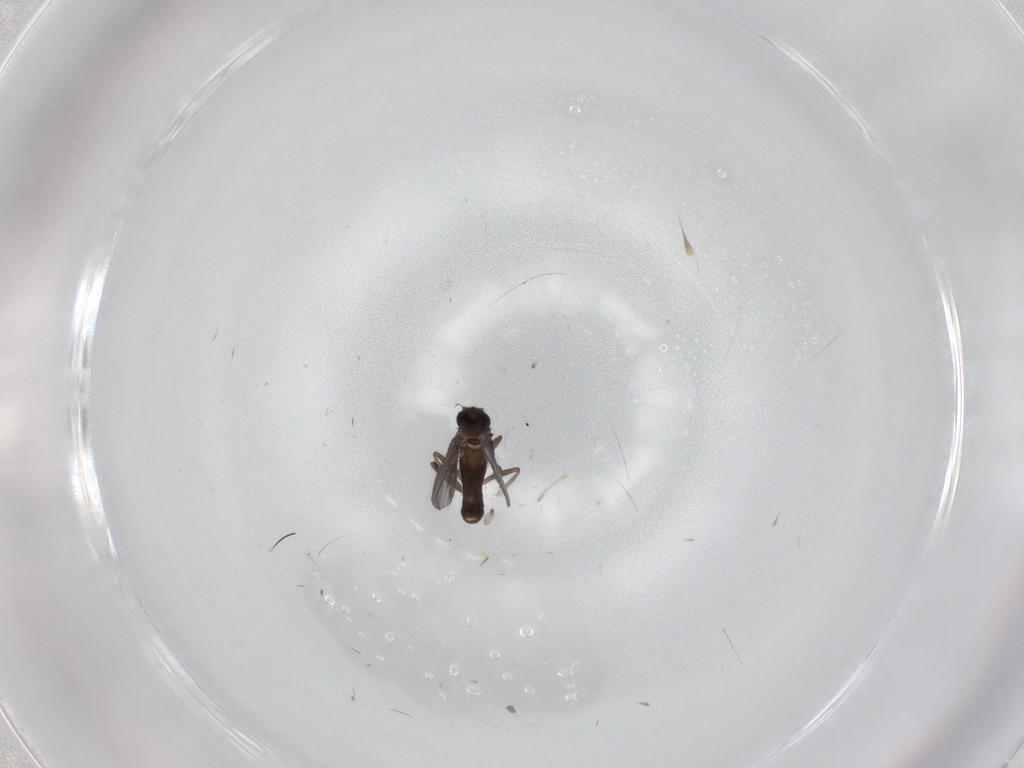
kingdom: Animalia
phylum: Arthropoda
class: Insecta
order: Diptera
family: Phoridae
